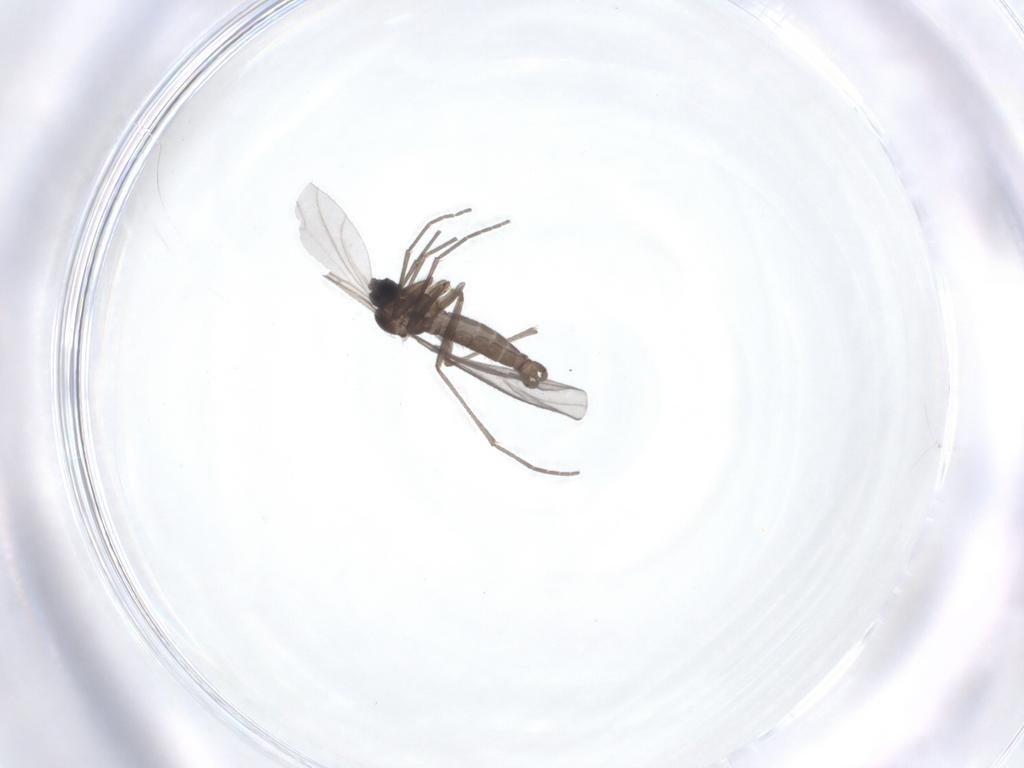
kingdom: Animalia
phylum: Arthropoda
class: Insecta
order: Diptera
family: Sciaridae
